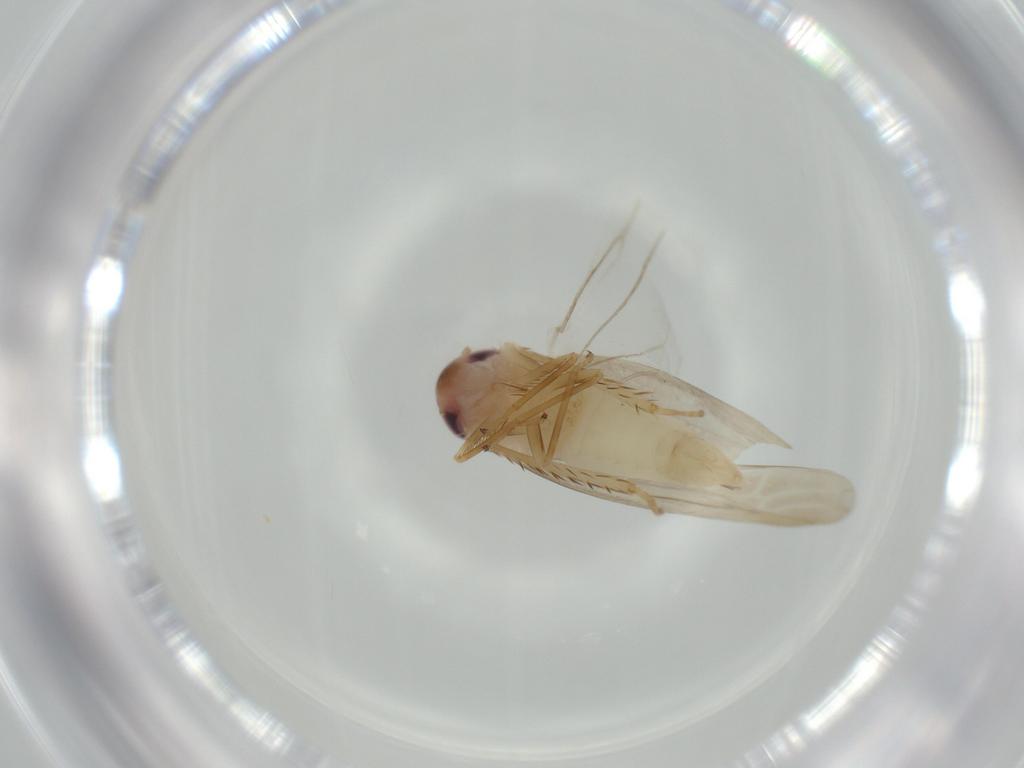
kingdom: Animalia
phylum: Arthropoda
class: Insecta
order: Hemiptera
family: Cicadellidae
